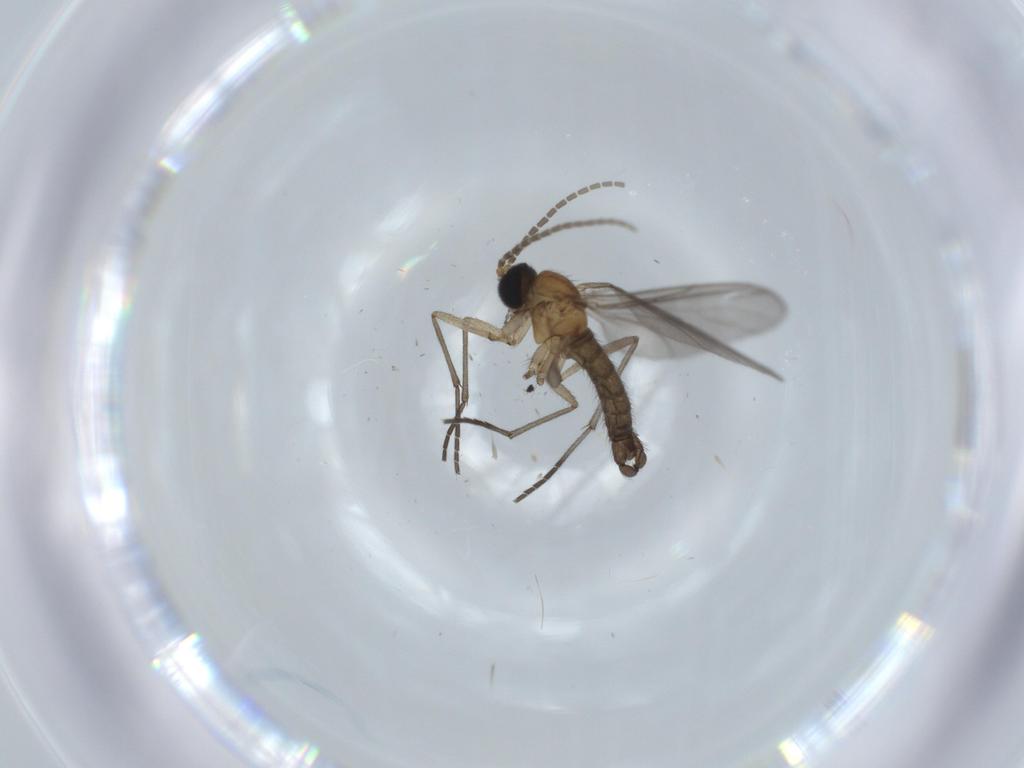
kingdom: Animalia
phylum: Arthropoda
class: Insecta
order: Diptera
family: Sciaridae
